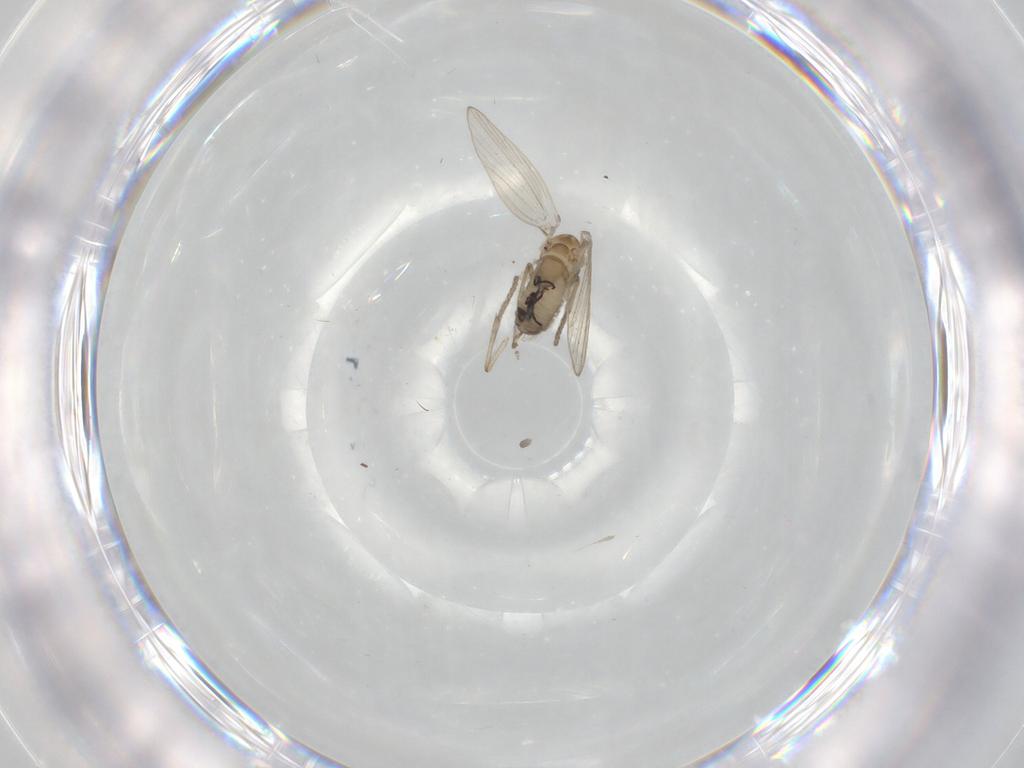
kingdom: Animalia
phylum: Arthropoda
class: Insecta
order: Diptera
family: Psychodidae
